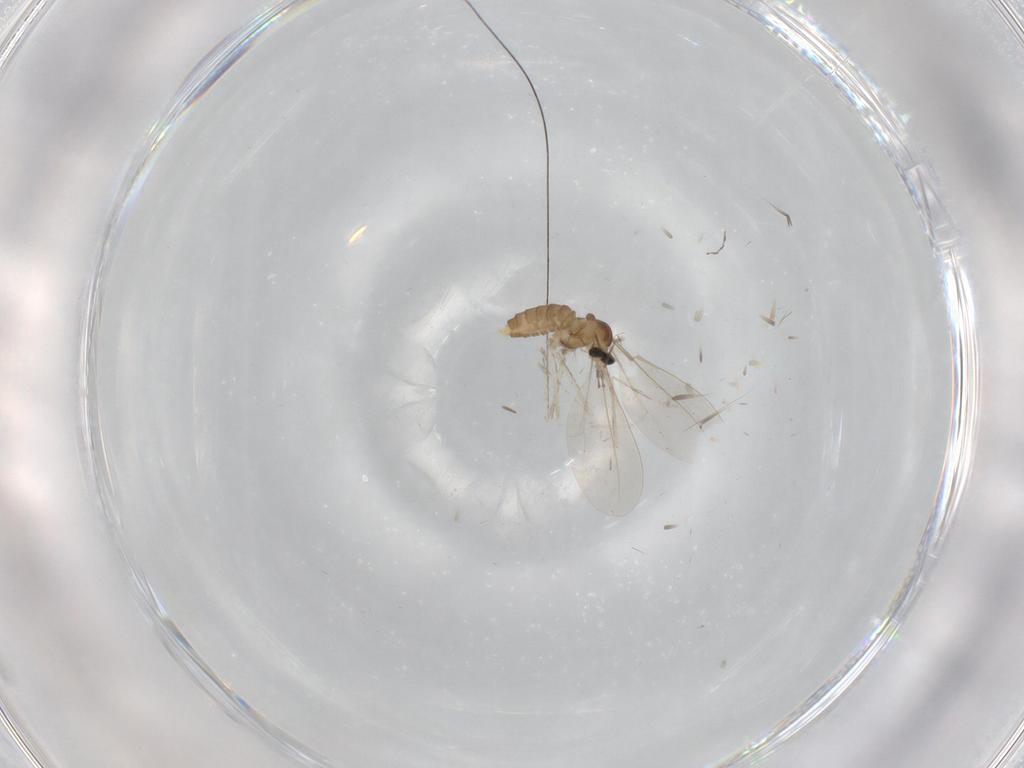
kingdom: Animalia
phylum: Arthropoda
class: Insecta
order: Diptera
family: Cecidomyiidae
